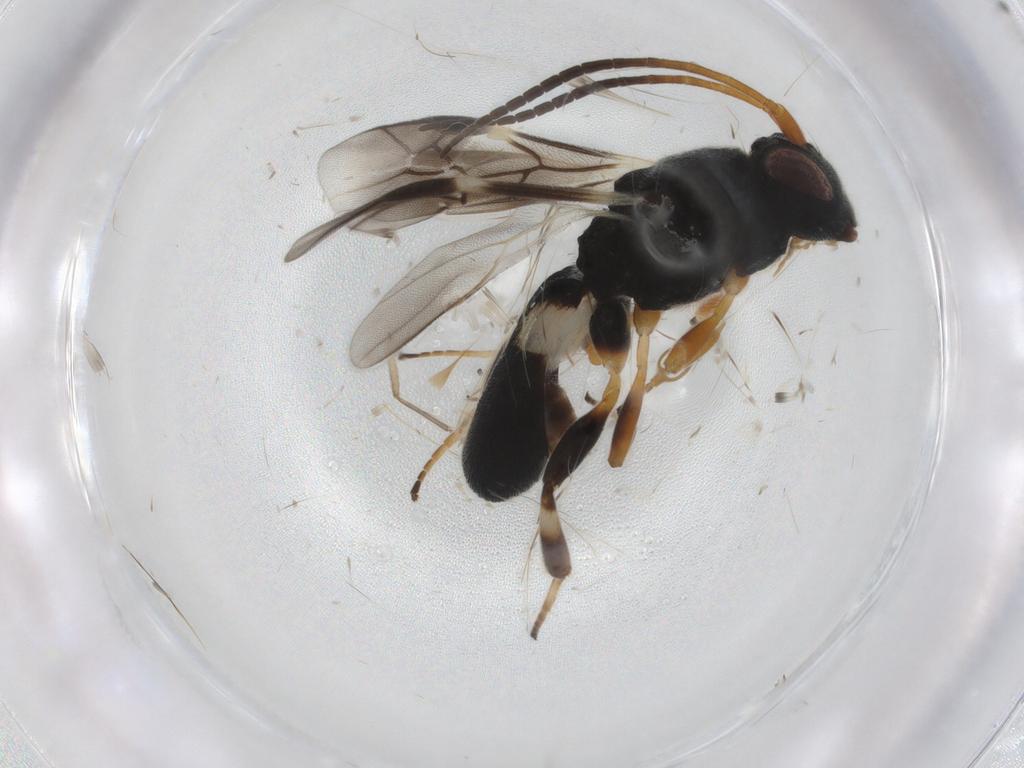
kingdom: Animalia
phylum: Arthropoda
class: Insecta
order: Hymenoptera
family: Braconidae
